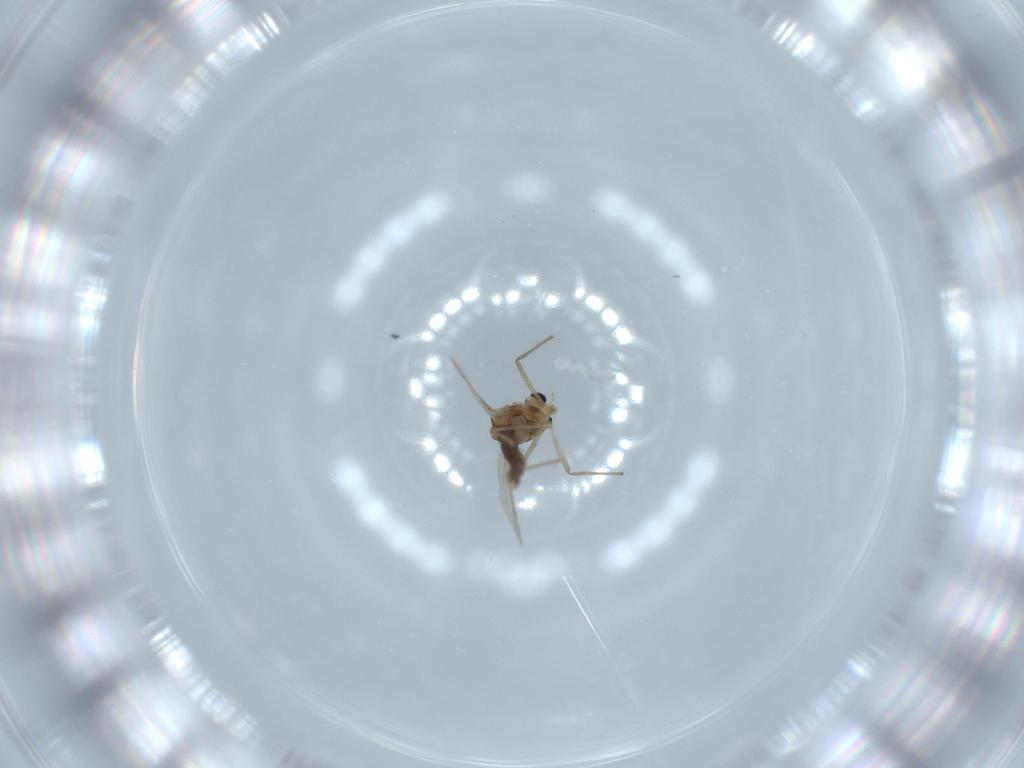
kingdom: Animalia
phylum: Arthropoda
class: Insecta
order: Diptera
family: Chironomidae
